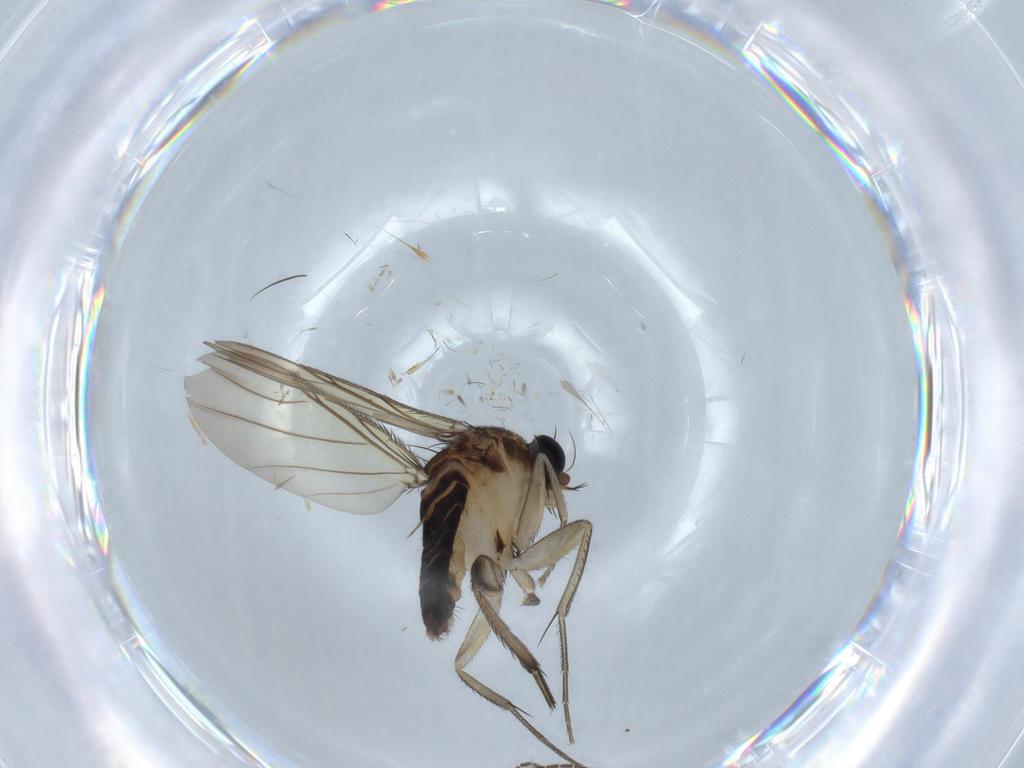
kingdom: Animalia
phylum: Arthropoda
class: Insecta
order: Diptera
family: Phoridae
